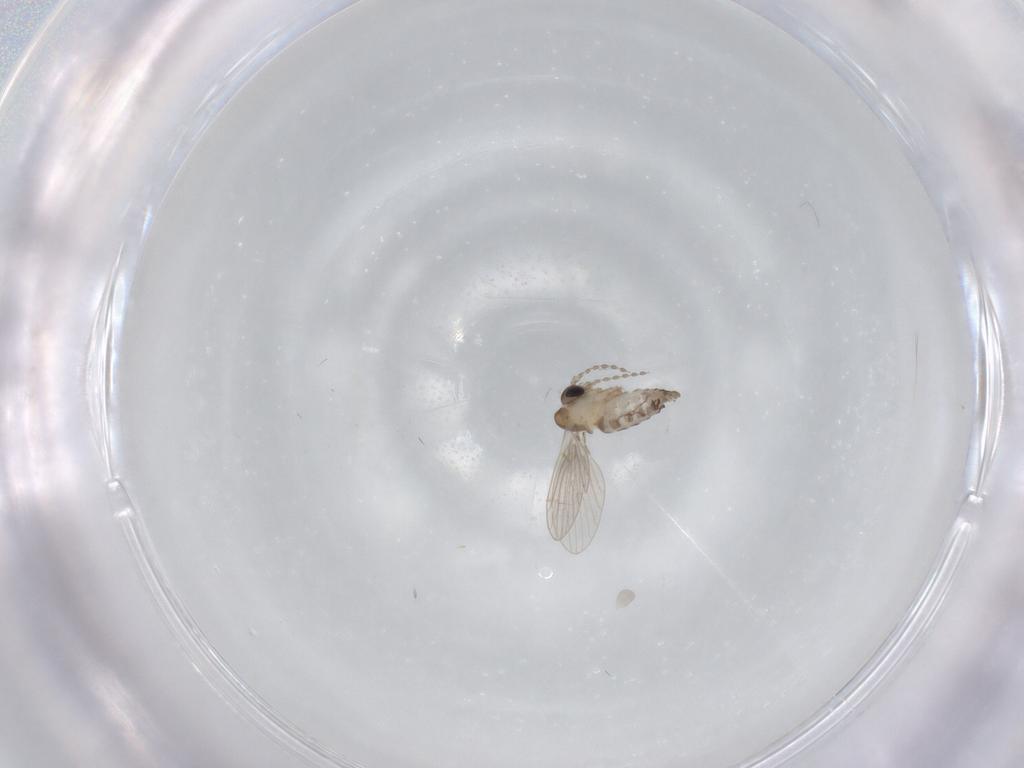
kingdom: Animalia
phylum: Arthropoda
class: Insecta
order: Diptera
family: Psychodidae
